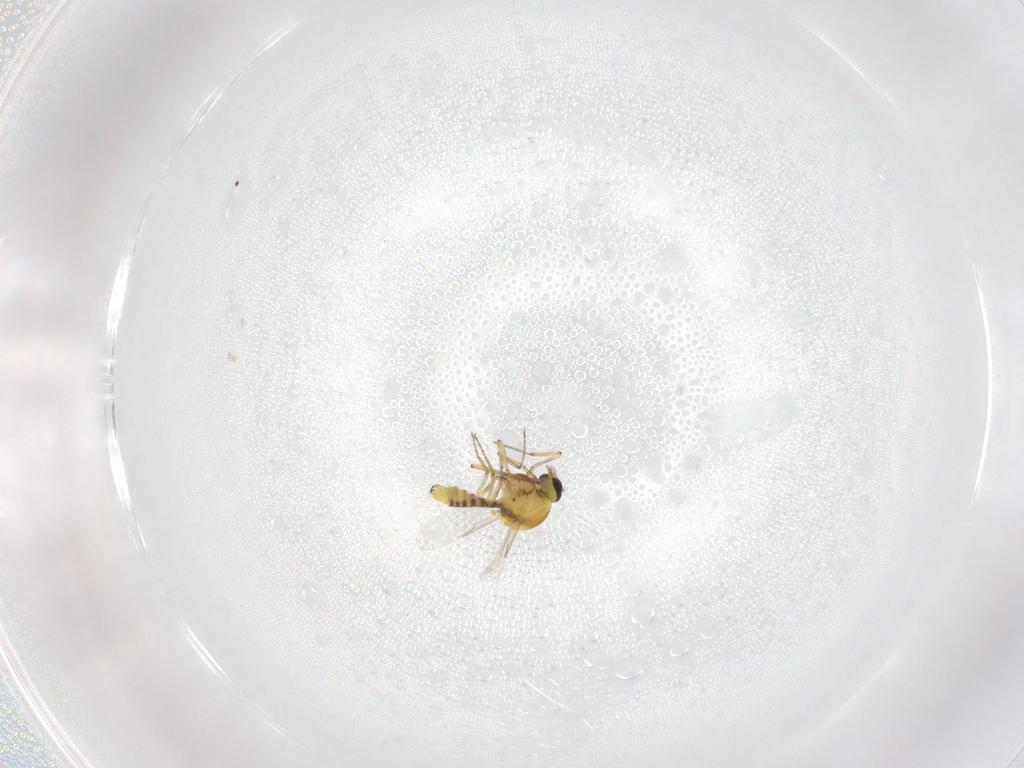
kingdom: Animalia
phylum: Arthropoda
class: Insecta
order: Diptera
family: Ceratopogonidae
